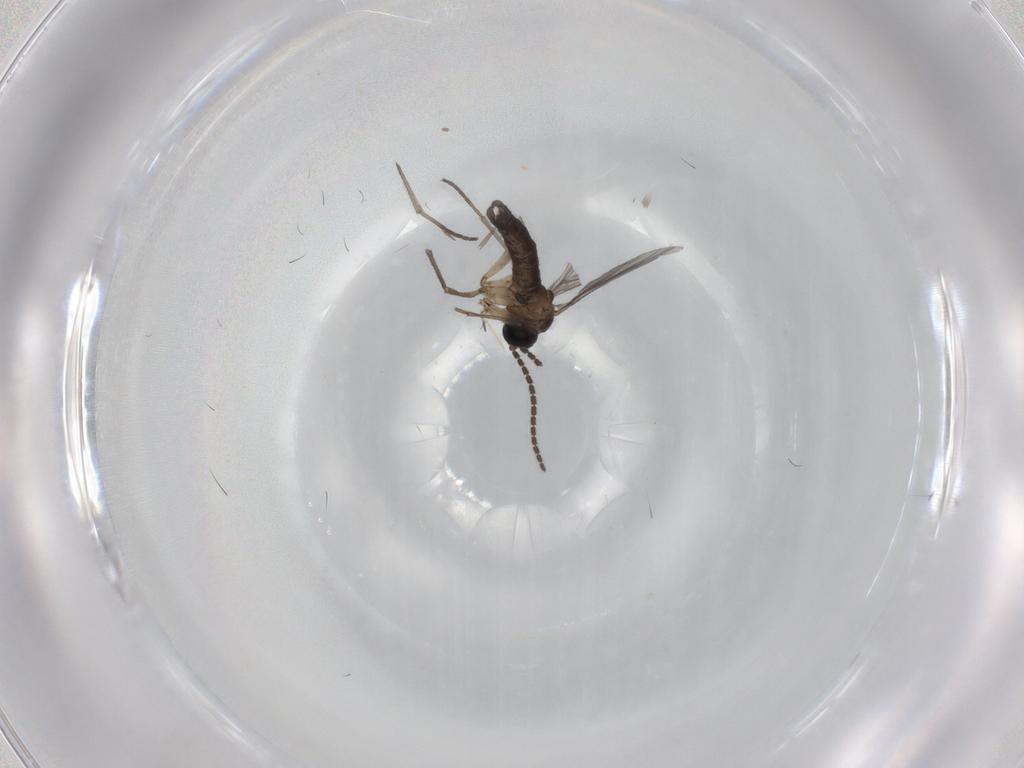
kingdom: Animalia
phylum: Arthropoda
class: Insecta
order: Diptera
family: Sciaridae
